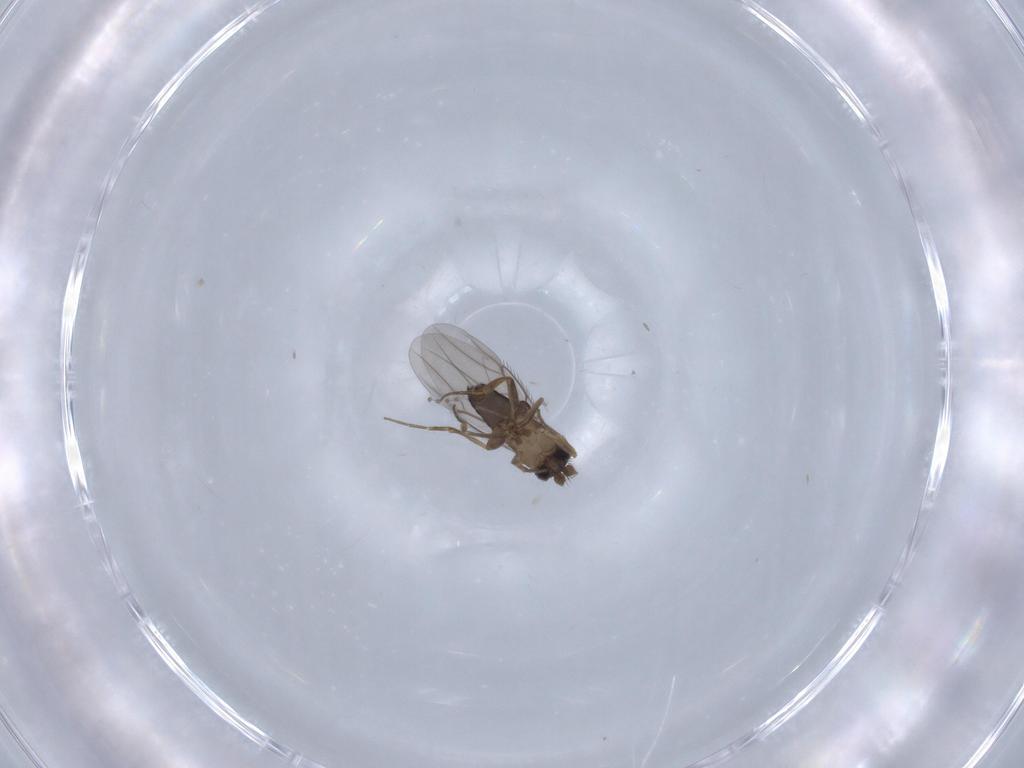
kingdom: Animalia
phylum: Arthropoda
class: Insecta
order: Diptera
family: Phoridae
